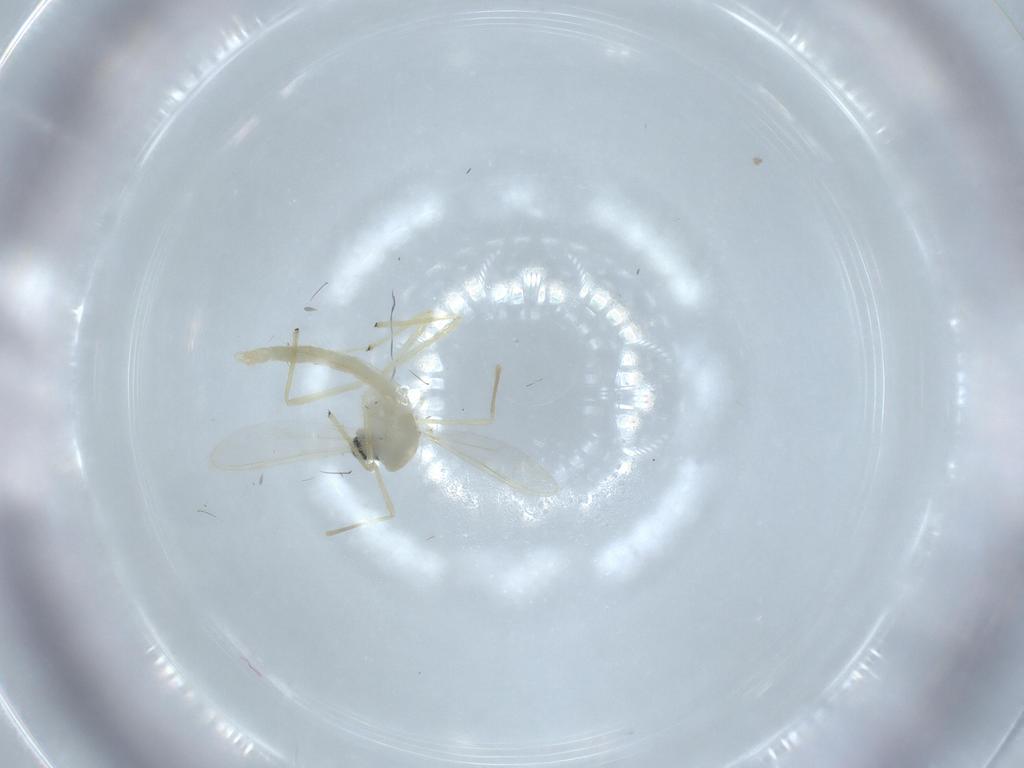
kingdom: Animalia
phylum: Arthropoda
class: Insecta
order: Diptera
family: Chironomidae
